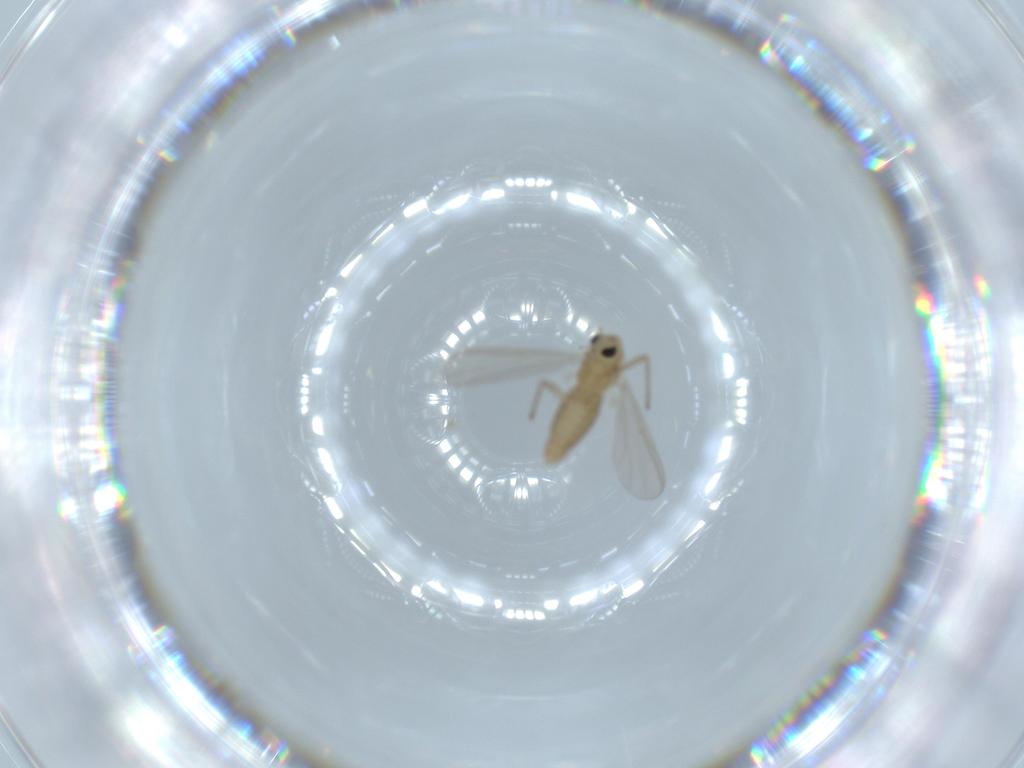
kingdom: Animalia
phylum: Arthropoda
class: Insecta
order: Diptera
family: Chironomidae
